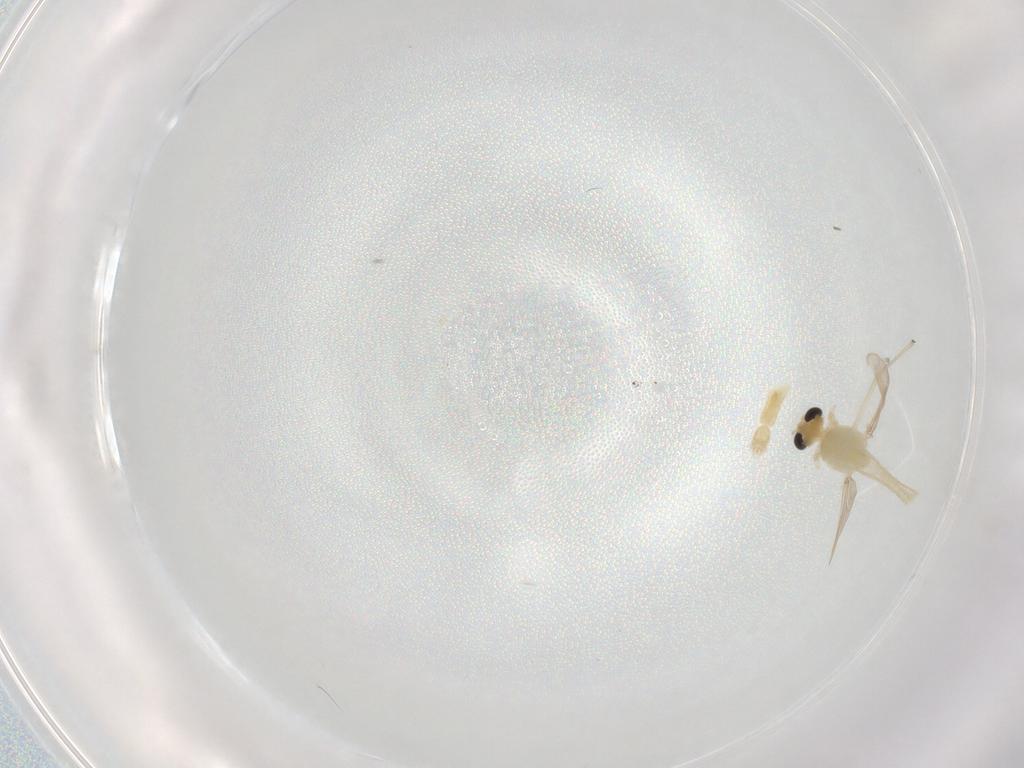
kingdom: Animalia
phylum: Arthropoda
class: Insecta
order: Diptera
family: Chironomidae
